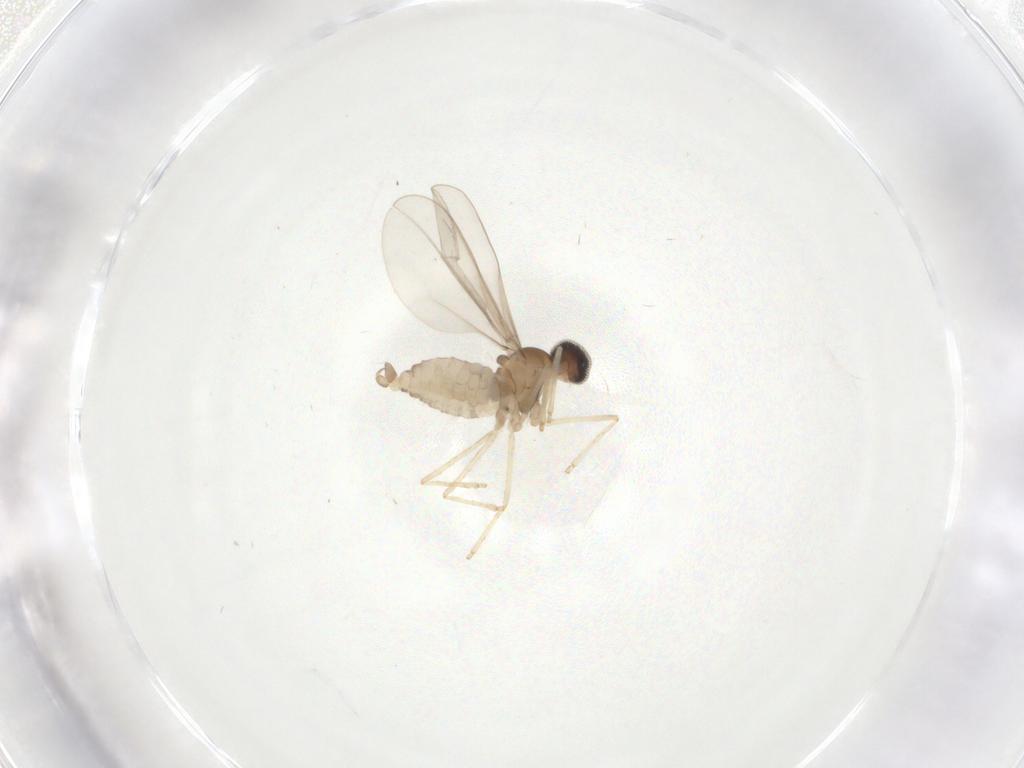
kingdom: Animalia
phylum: Arthropoda
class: Insecta
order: Diptera
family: Cecidomyiidae
